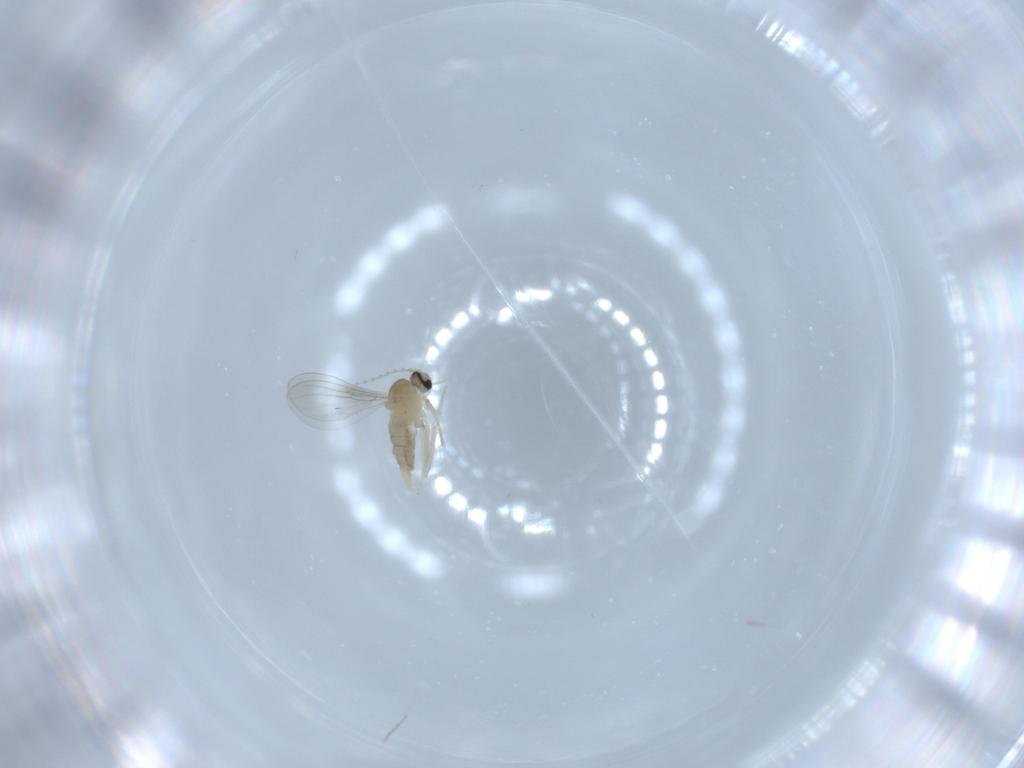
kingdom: Animalia
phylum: Arthropoda
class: Insecta
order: Diptera
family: Cecidomyiidae
